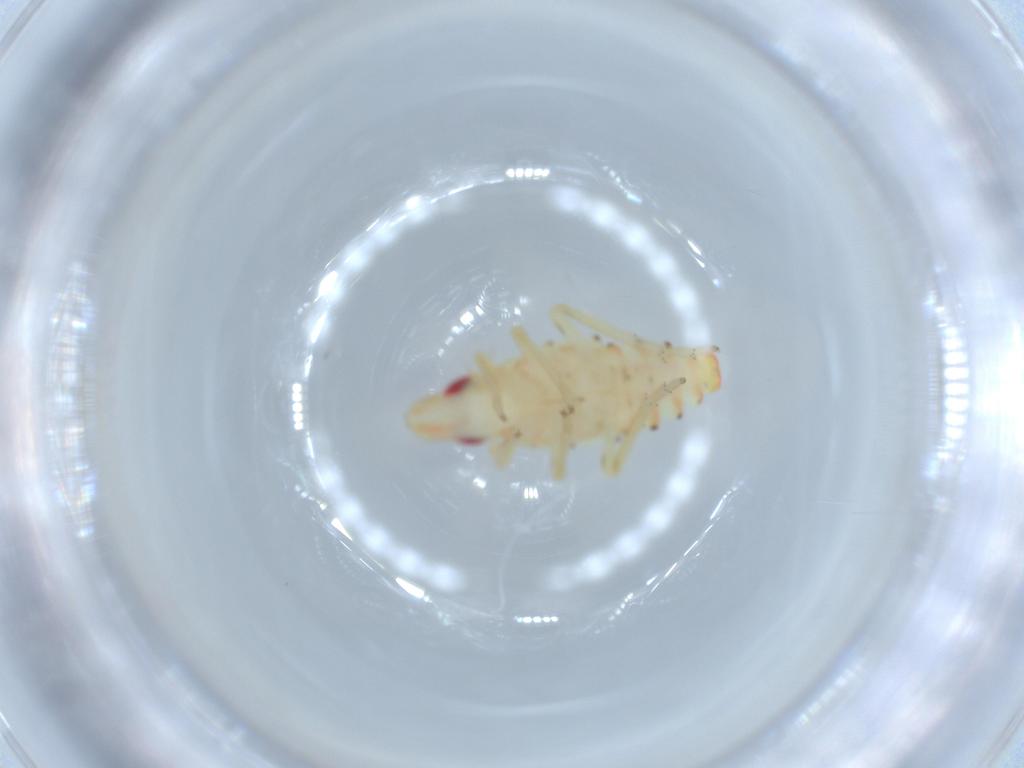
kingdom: Animalia
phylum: Arthropoda
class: Insecta
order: Hemiptera
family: Tropiduchidae
